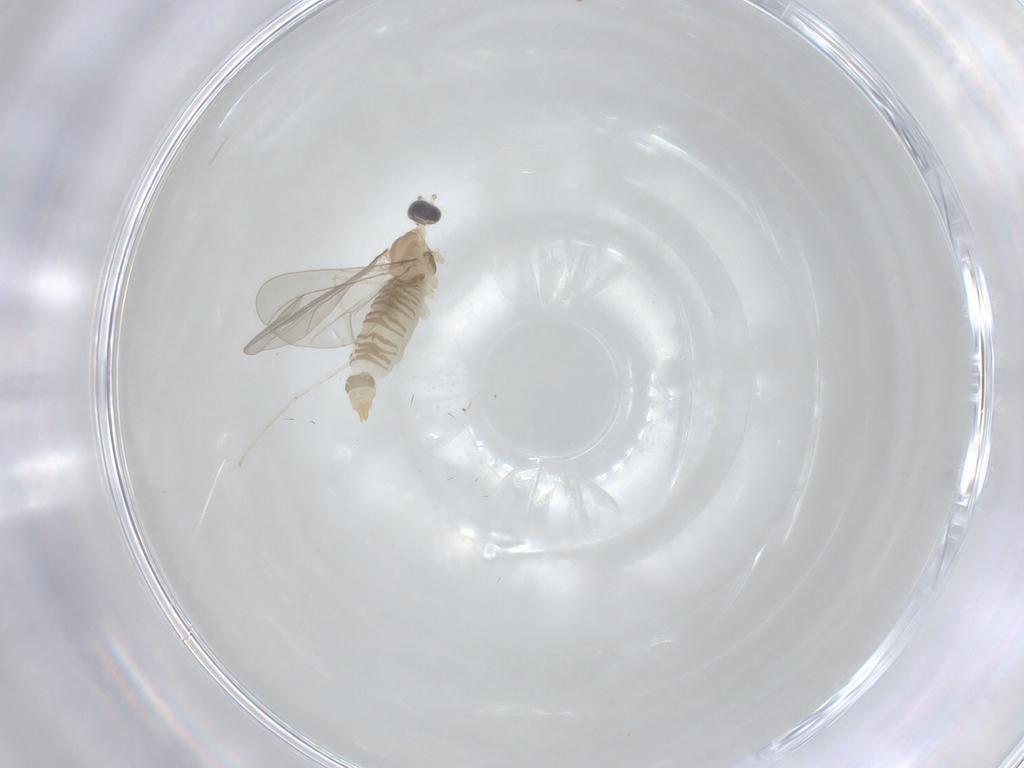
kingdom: Animalia
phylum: Arthropoda
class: Insecta
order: Diptera
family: Cecidomyiidae
